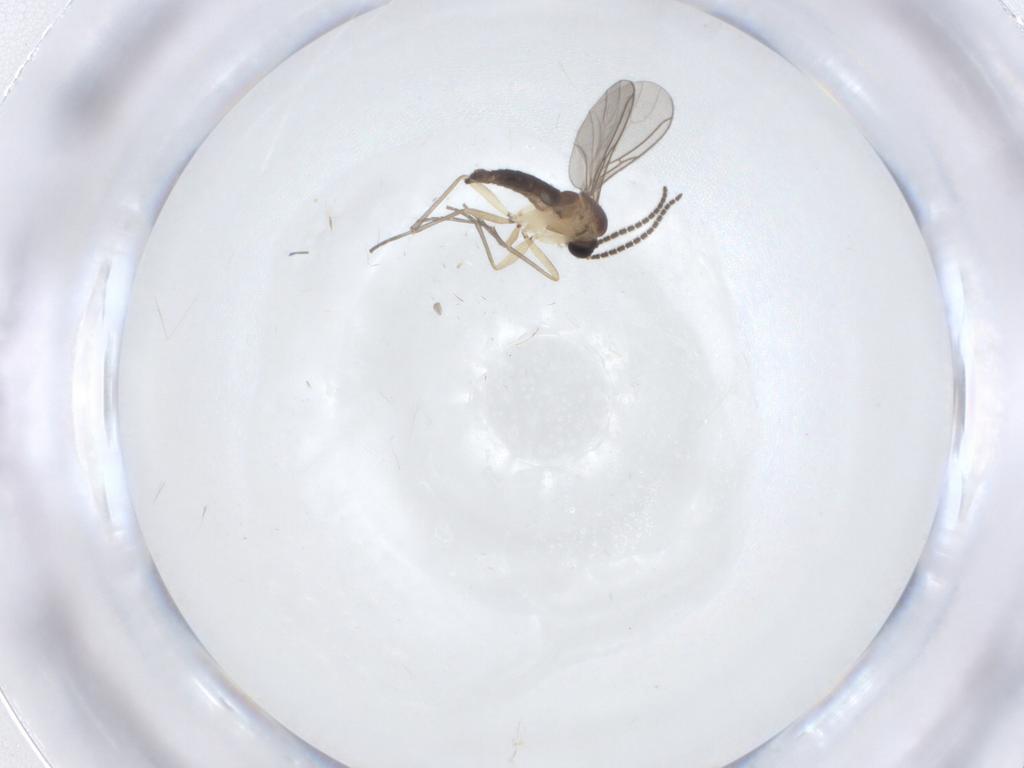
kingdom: Animalia
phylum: Arthropoda
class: Insecta
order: Diptera
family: Sciaridae
